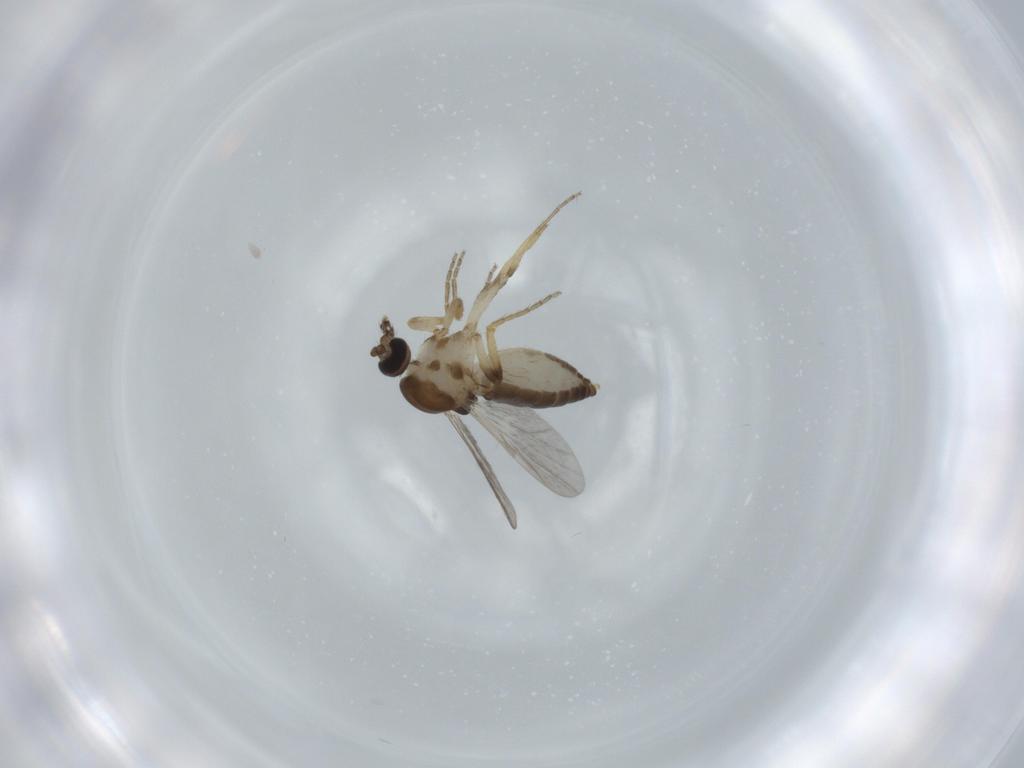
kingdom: Animalia
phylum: Arthropoda
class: Insecta
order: Diptera
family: Ceratopogonidae
